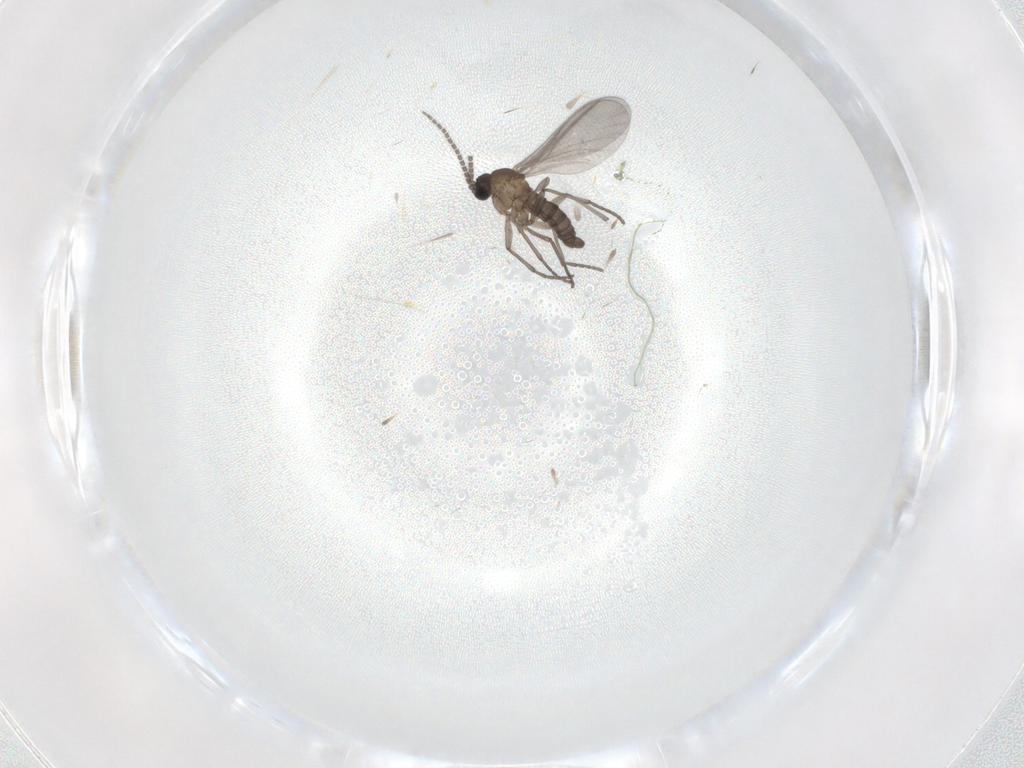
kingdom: Animalia
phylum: Arthropoda
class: Insecta
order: Diptera
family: Sciaridae
